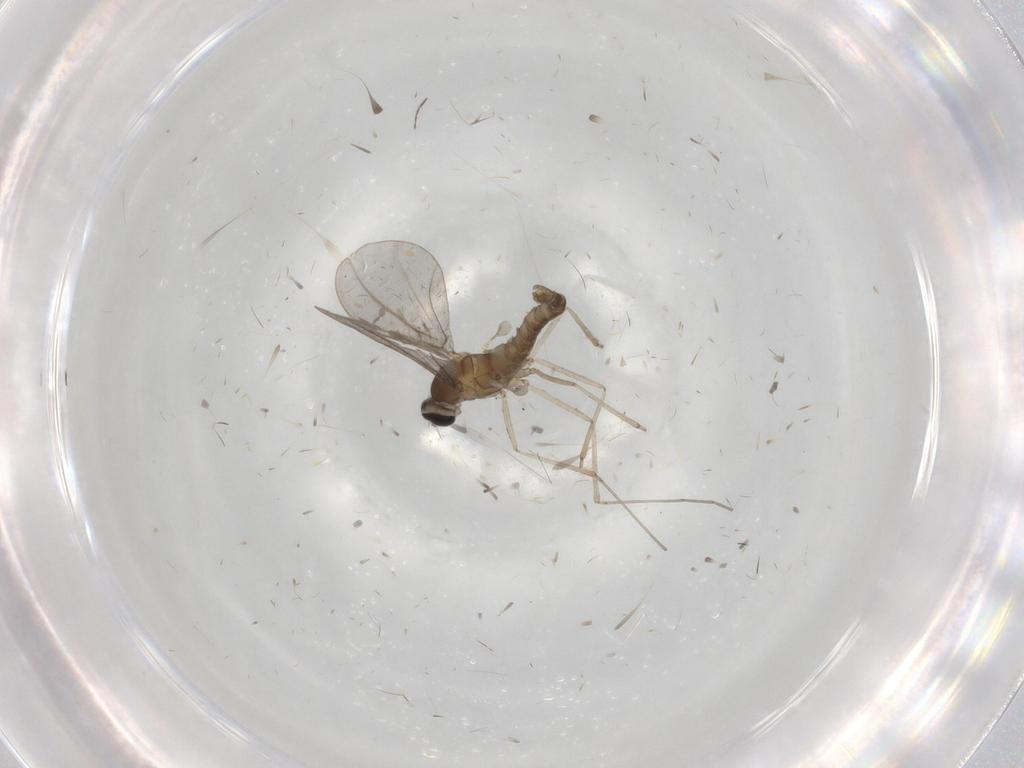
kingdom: Animalia
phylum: Arthropoda
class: Insecta
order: Diptera
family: Cecidomyiidae
